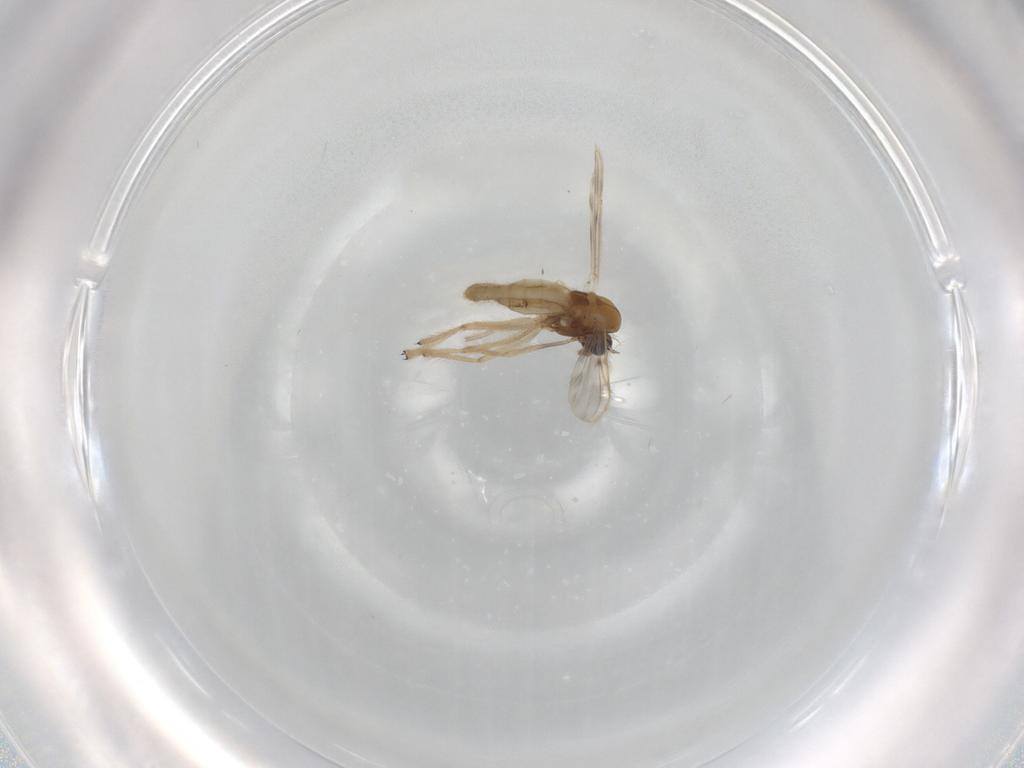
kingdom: Animalia
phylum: Arthropoda
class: Insecta
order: Diptera
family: Chironomidae
